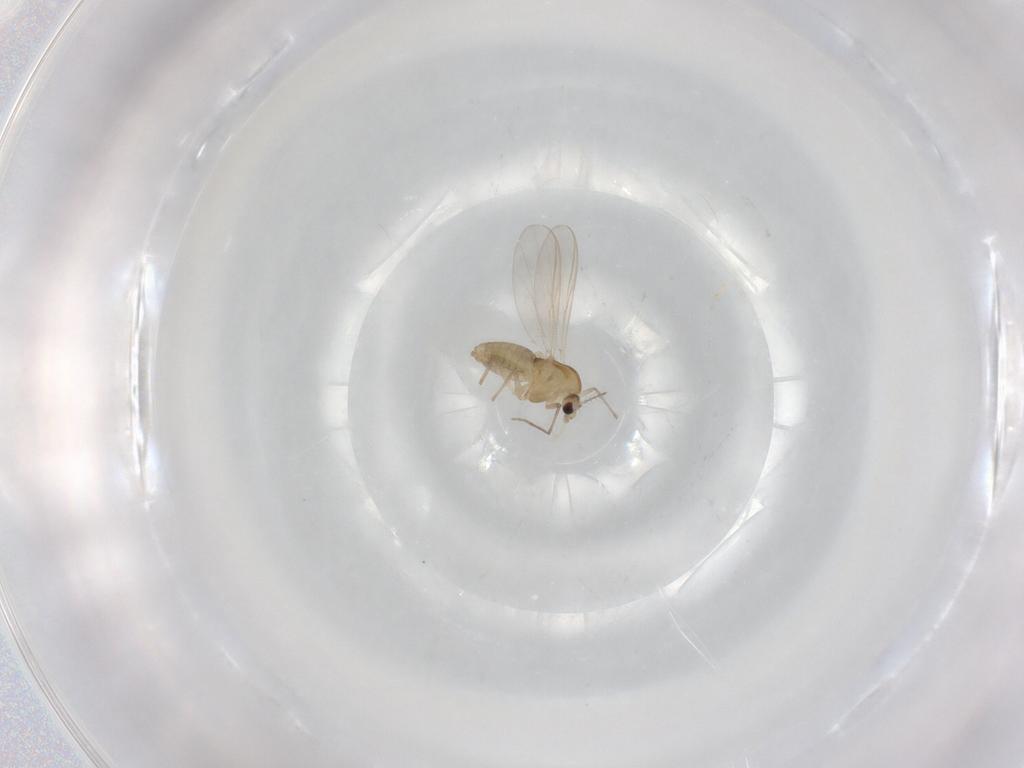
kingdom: Animalia
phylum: Arthropoda
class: Insecta
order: Diptera
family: Chironomidae
